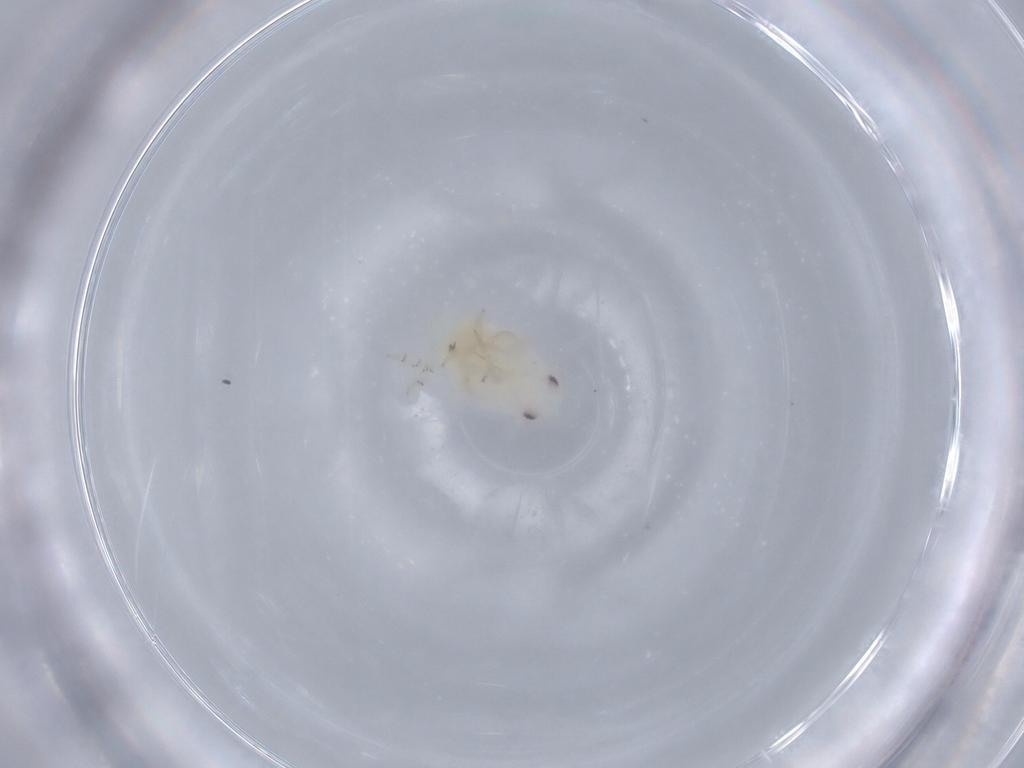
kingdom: Animalia
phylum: Arthropoda
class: Insecta
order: Hemiptera
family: Flatidae
